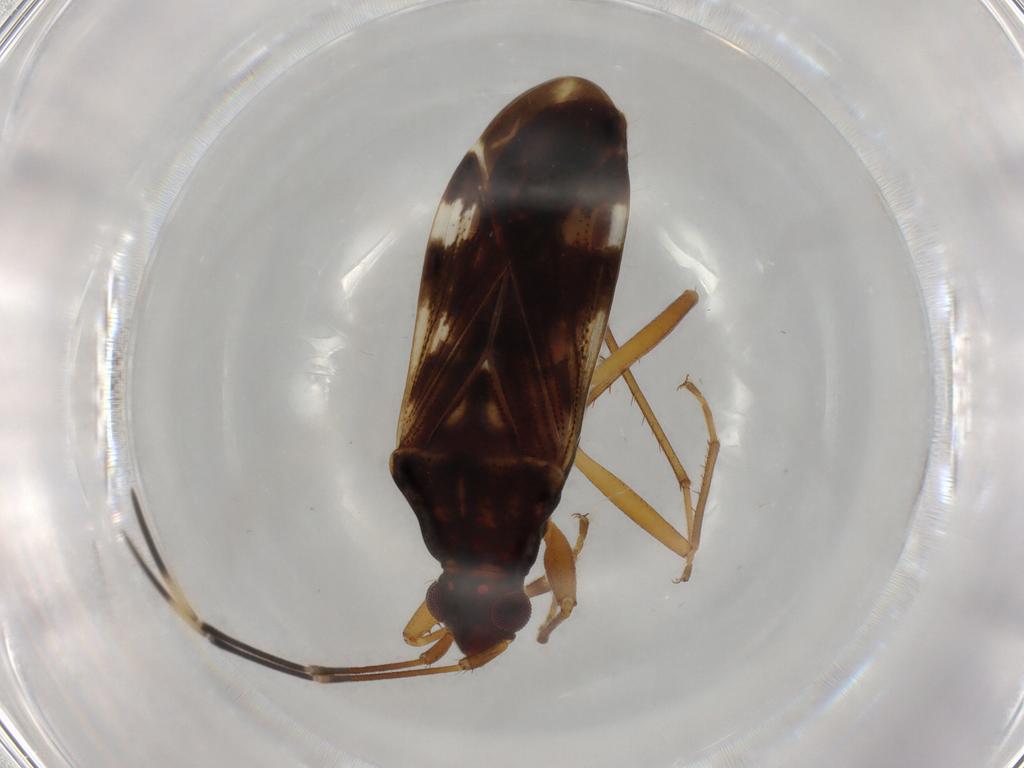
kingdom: Animalia
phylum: Arthropoda
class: Insecta
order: Hemiptera
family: Rhyparochromidae
